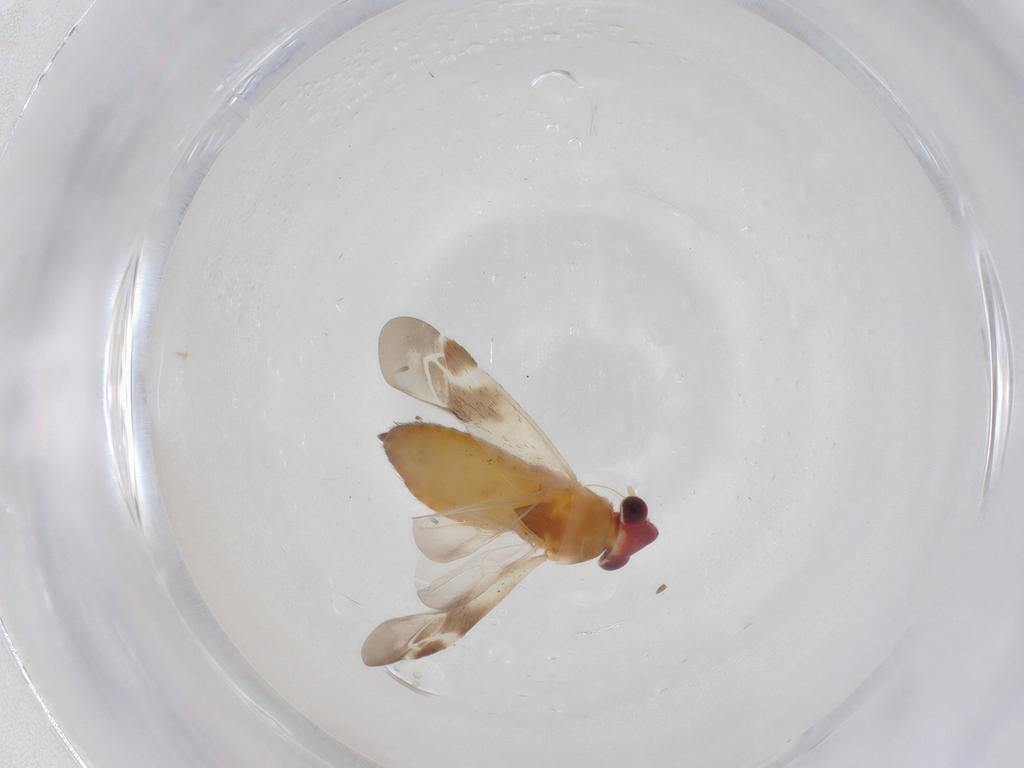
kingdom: Animalia
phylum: Arthropoda
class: Insecta
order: Hemiptera
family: Miridae
